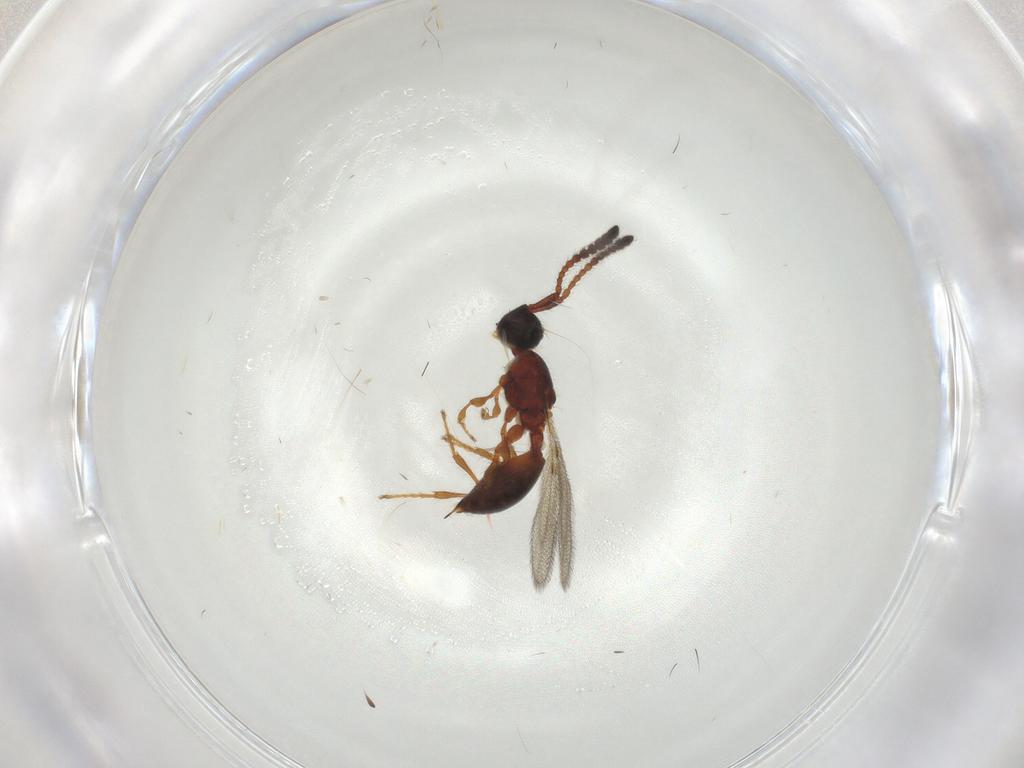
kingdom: Animalia
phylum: Arthropoda
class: Insecta
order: Hymenoptera
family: Diapriidae
